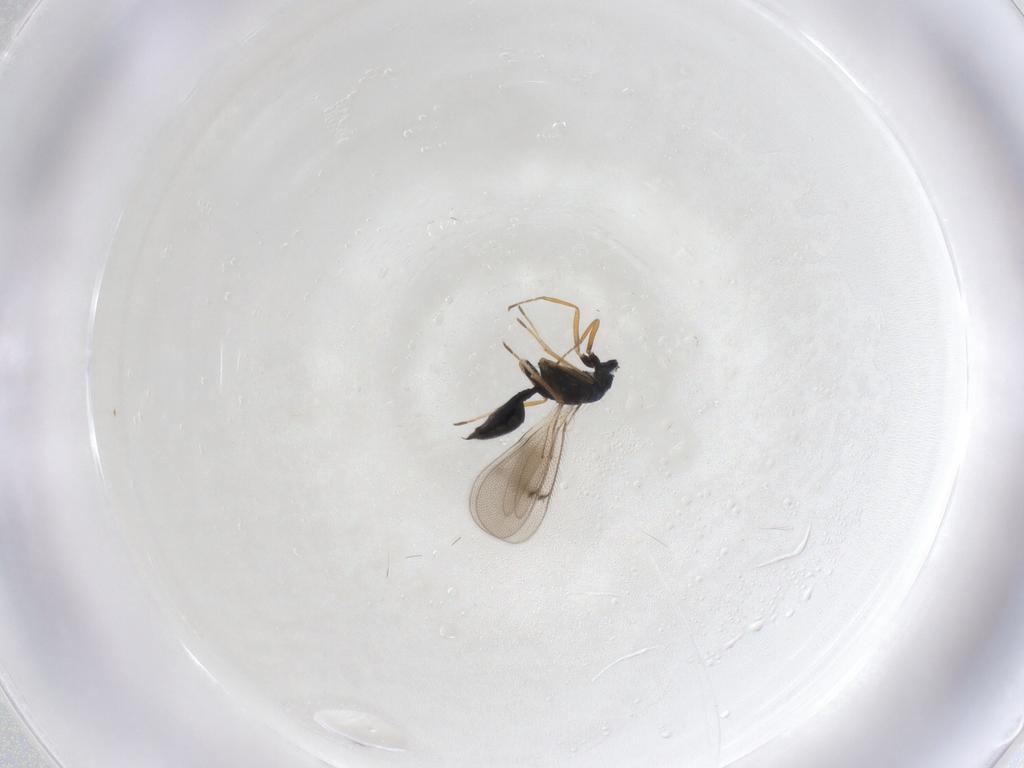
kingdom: Animalia
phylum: Arthropoda
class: Insecta
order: Hymenoptera
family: Eulophidae
